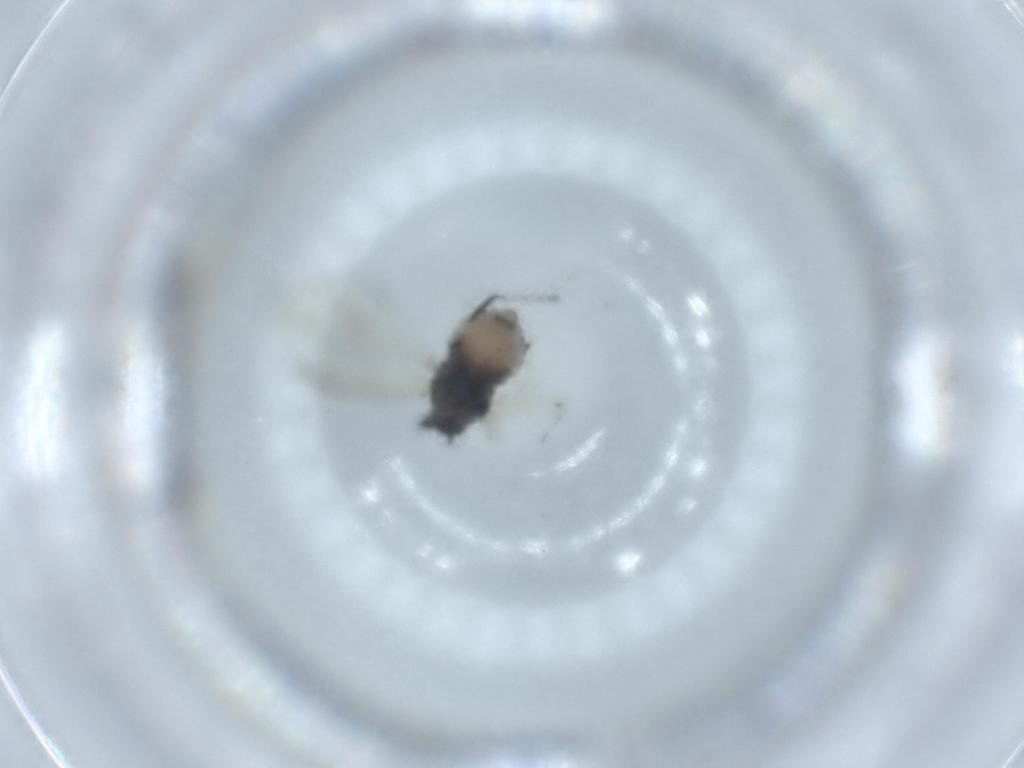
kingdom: Animalia
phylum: Arthropoda
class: Insecta
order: Hemiptera
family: Aphididae
